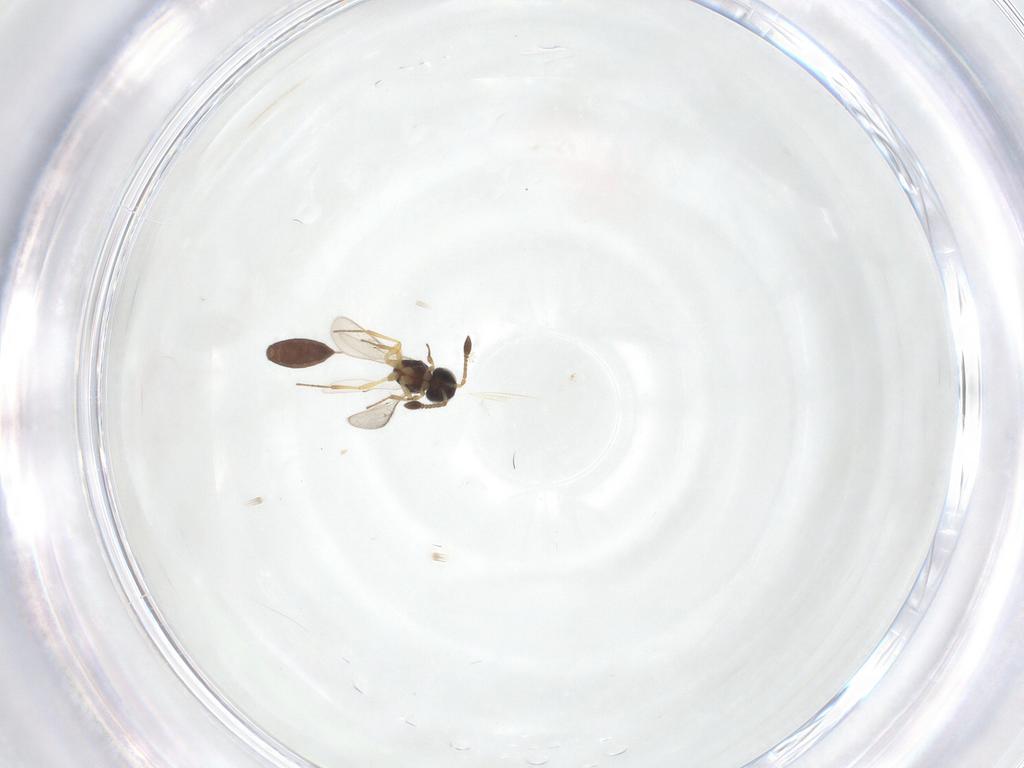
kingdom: Animalia
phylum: Arthropoda
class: Insecta
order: Hymenoptera
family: Scelionidae
